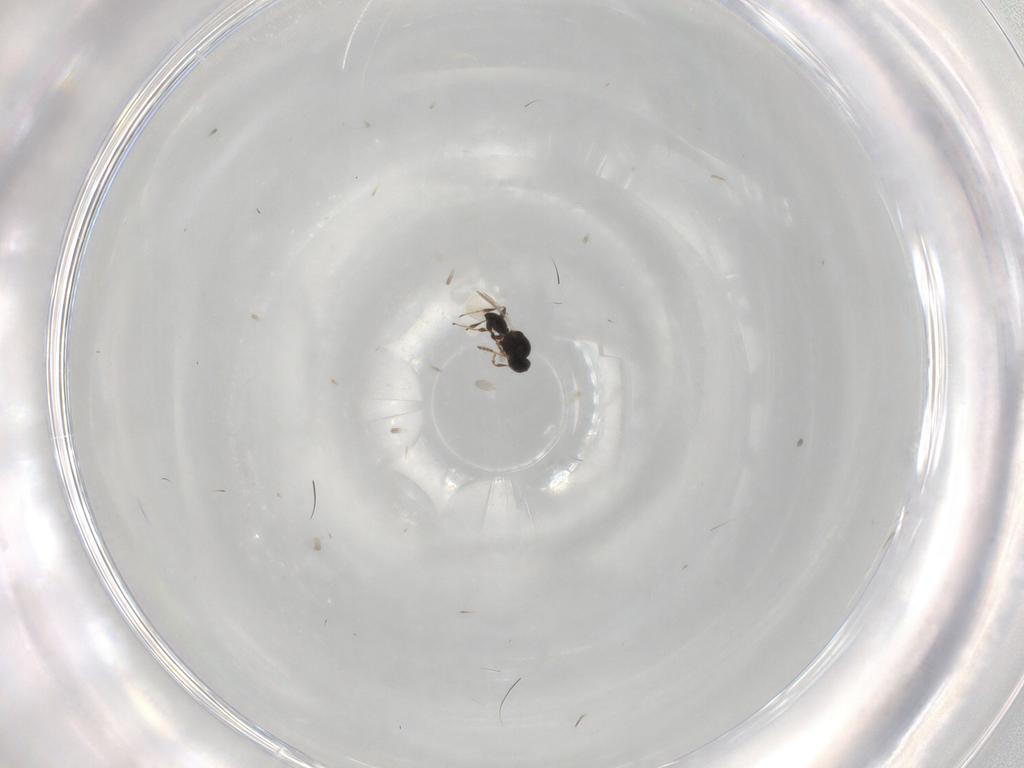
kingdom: Animalia
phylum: Arthropoda
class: Insecta
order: Hymenoptera
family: Platygastridae
